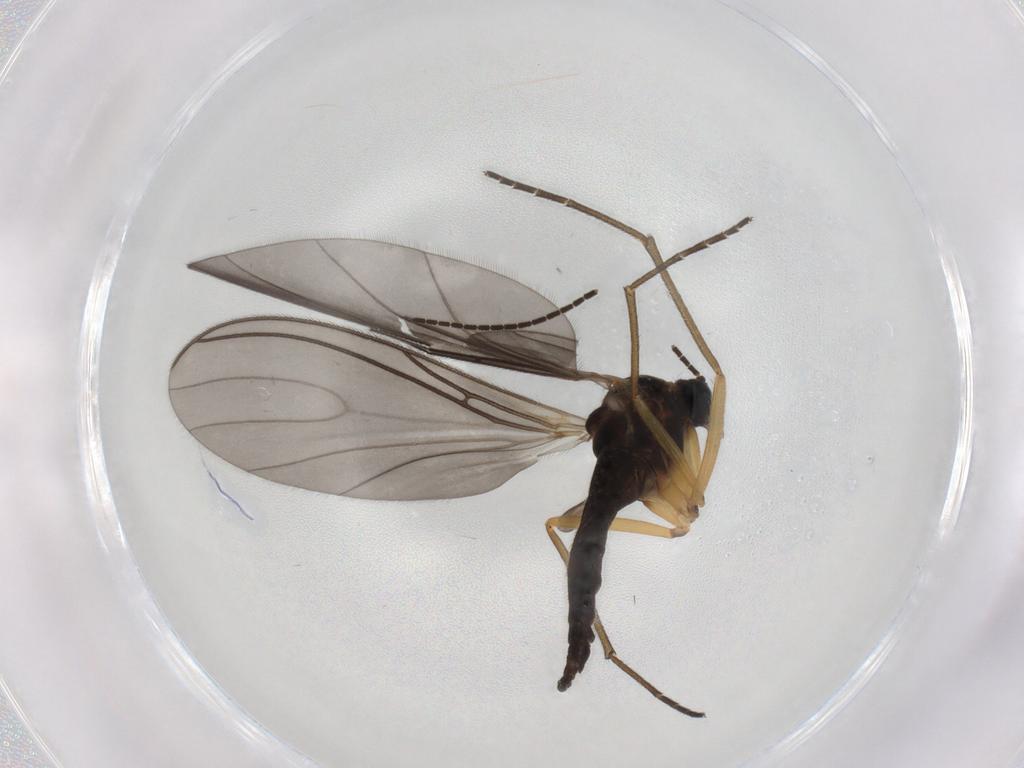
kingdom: Animalia
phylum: Arthropoda
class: Insecta
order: Diptera
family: Sciaridae
